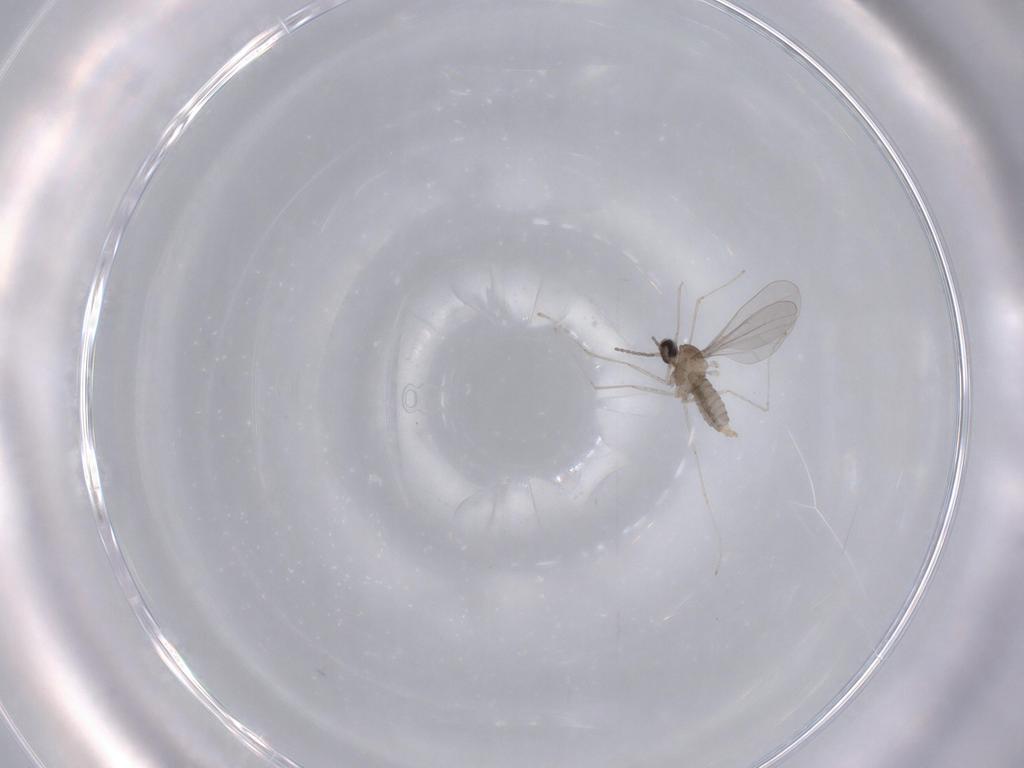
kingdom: Animalia
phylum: Arthropoda
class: Insecta
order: Diptera
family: Cecidomyiidae
